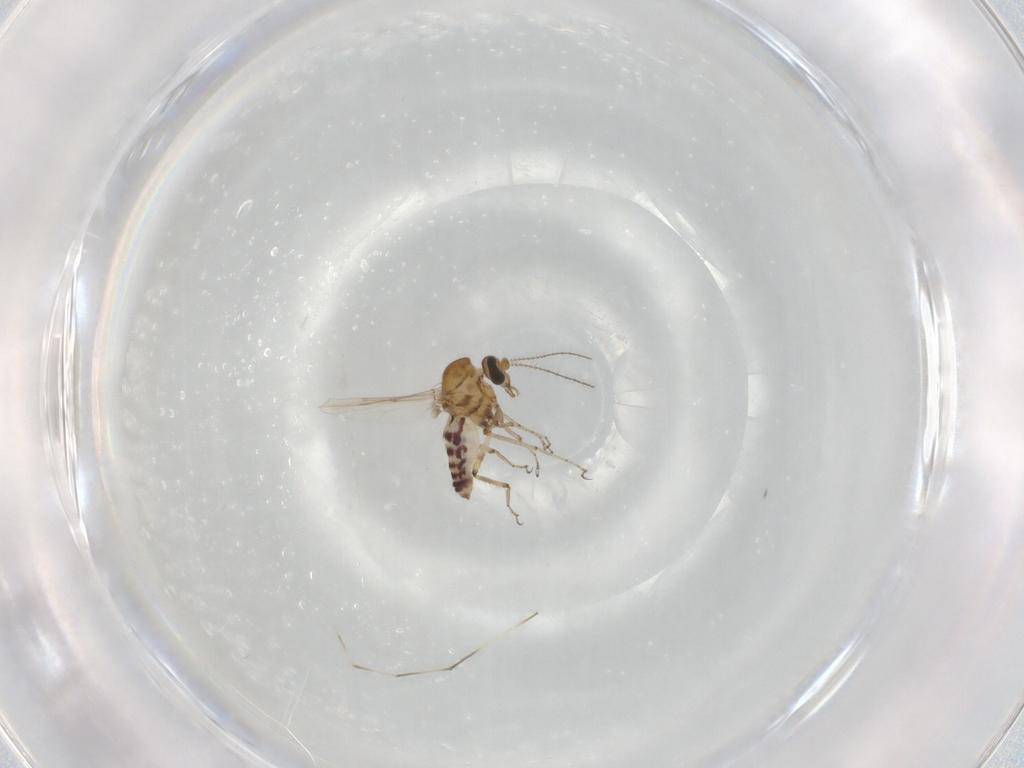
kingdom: Animalia
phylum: Arthropoda
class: Insecta
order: Diptera
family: Ceratopogonidae
